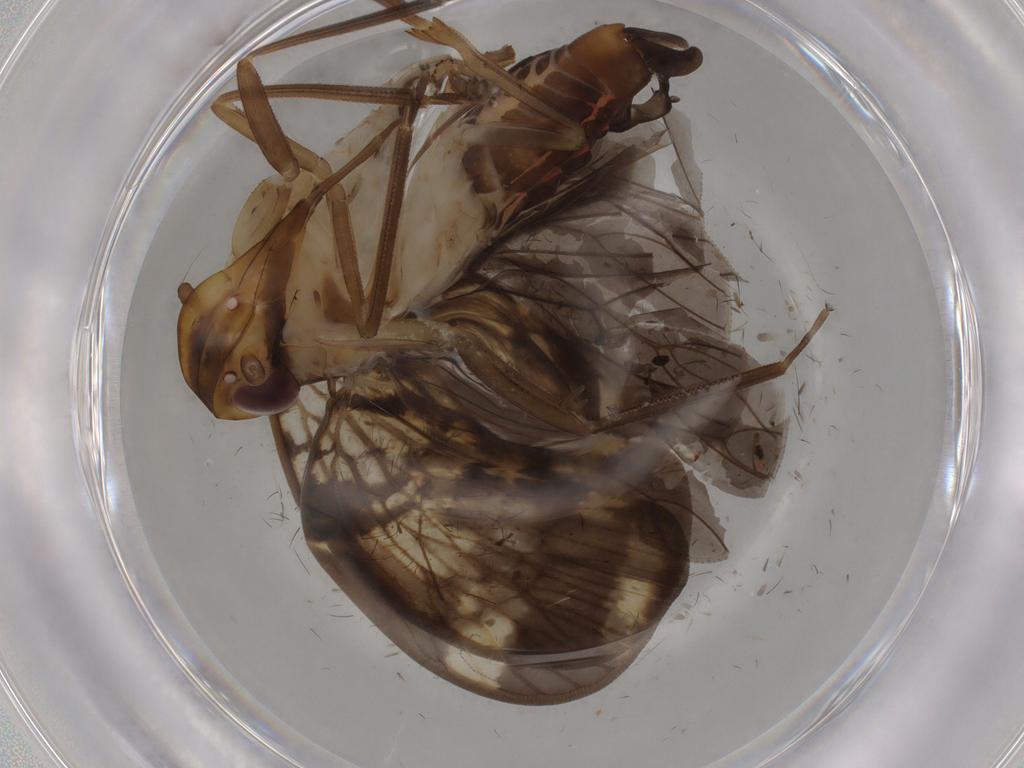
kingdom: Animalia
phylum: Arthropoda
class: Insecta
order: Hemiptera
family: Cixiidae
